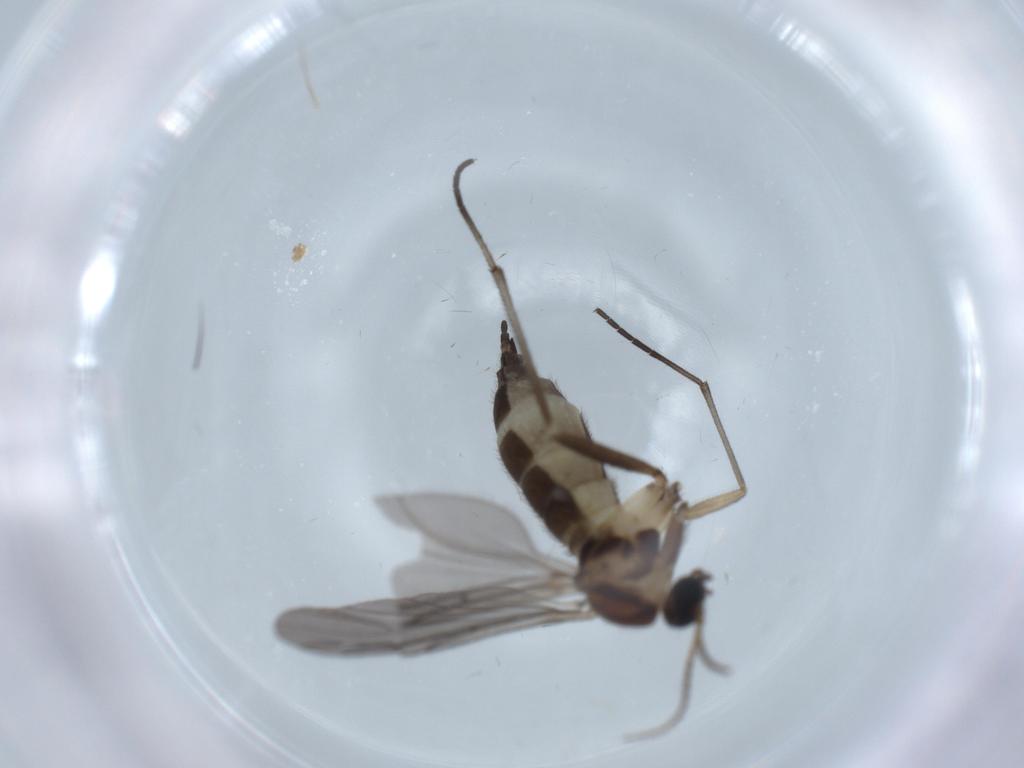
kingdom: Animalia
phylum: Arthropoda
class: Insecta
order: Diptera
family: Sciaridae
